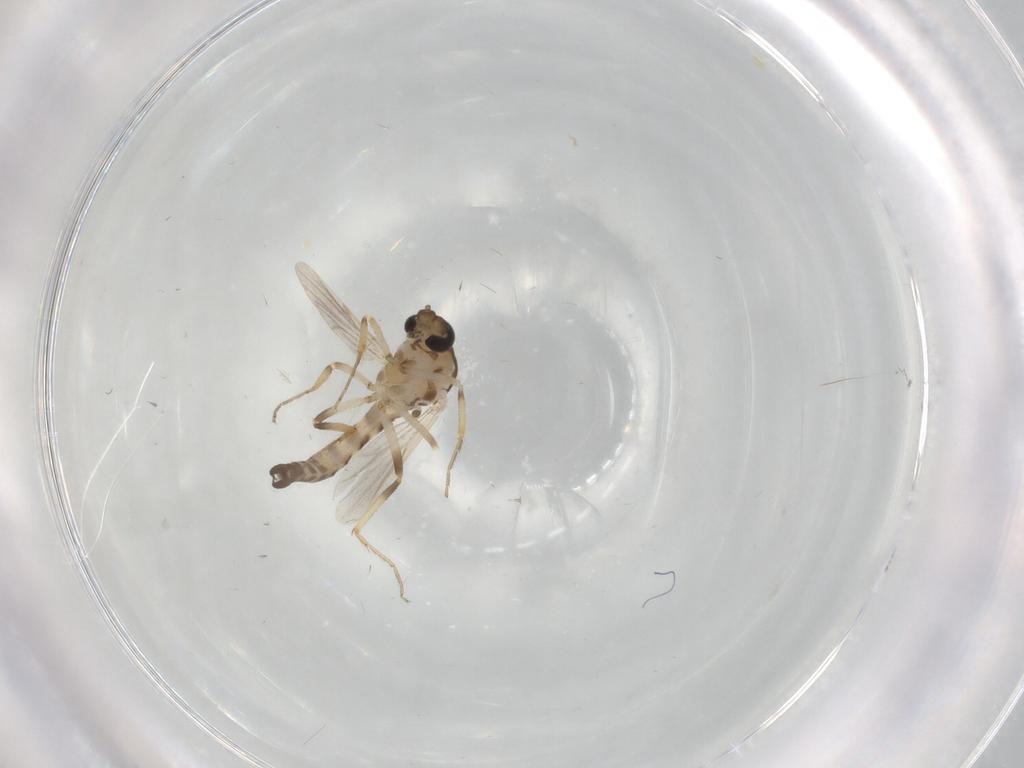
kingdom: Animalia
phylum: Arthropoda
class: Insecta
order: Diptera
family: Ceratopogonidae
